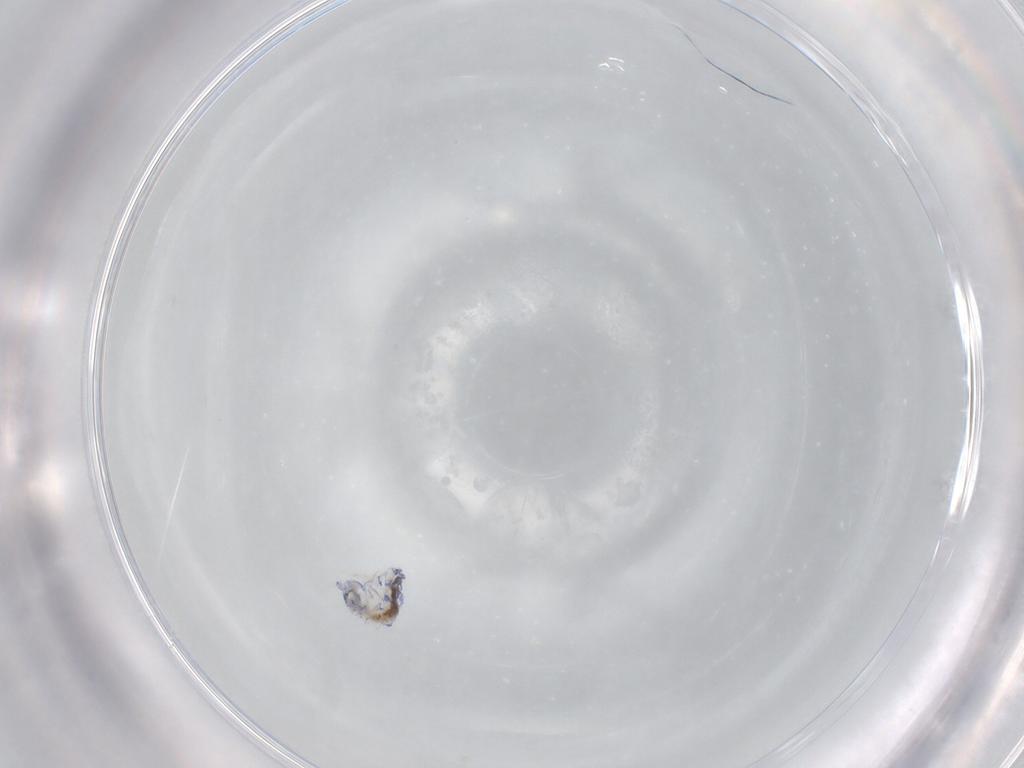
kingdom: Animalia
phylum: Arthropoda
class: Collembola
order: Entomobryomorpha
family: Entomobryidae
